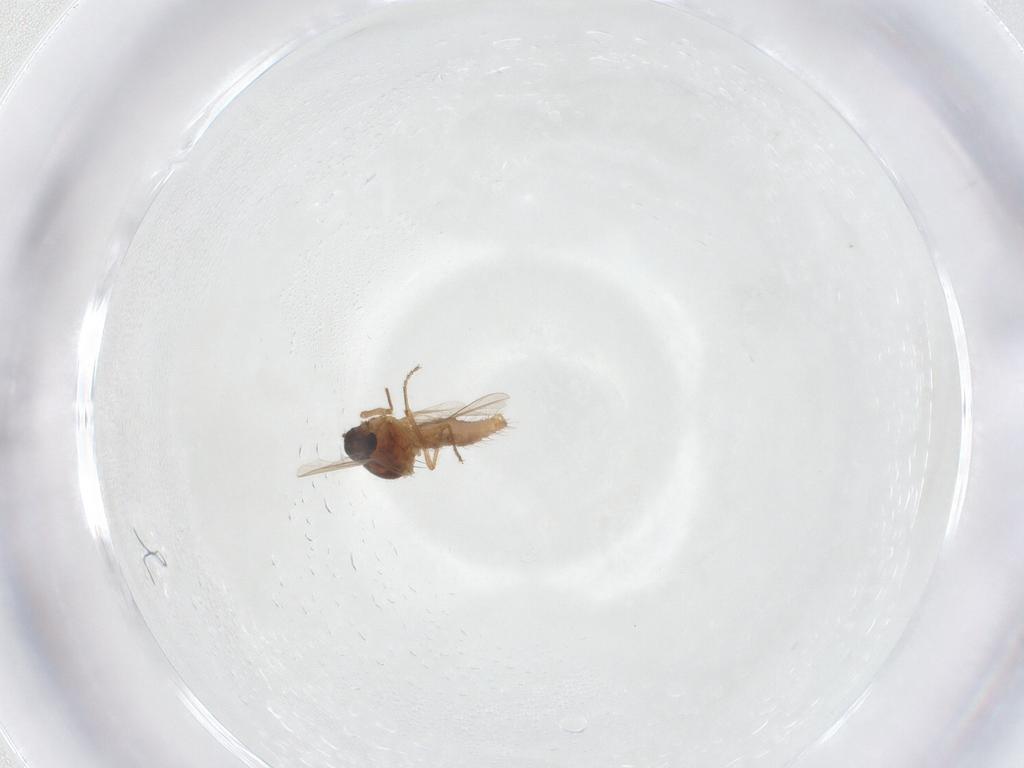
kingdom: Animalia
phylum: Arthropoda
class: Insecta
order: Diptera
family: Ceratopogonidae
